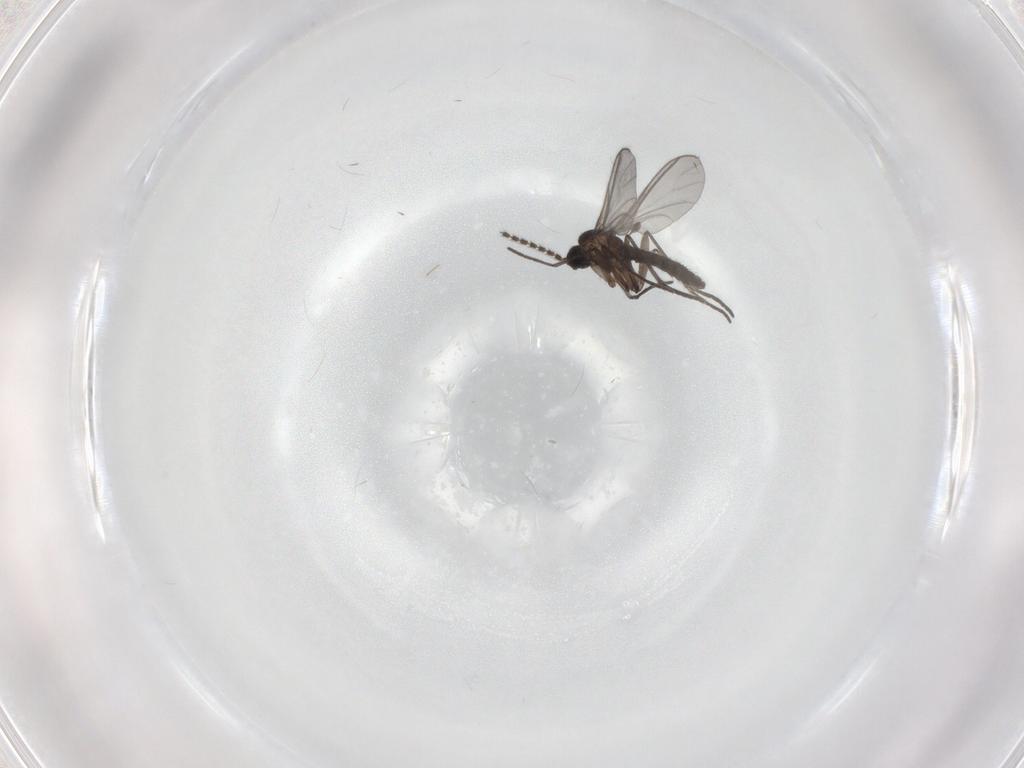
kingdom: Animalia
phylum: Arthropoda
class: Insecta
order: Diptera
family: Chironomidae
